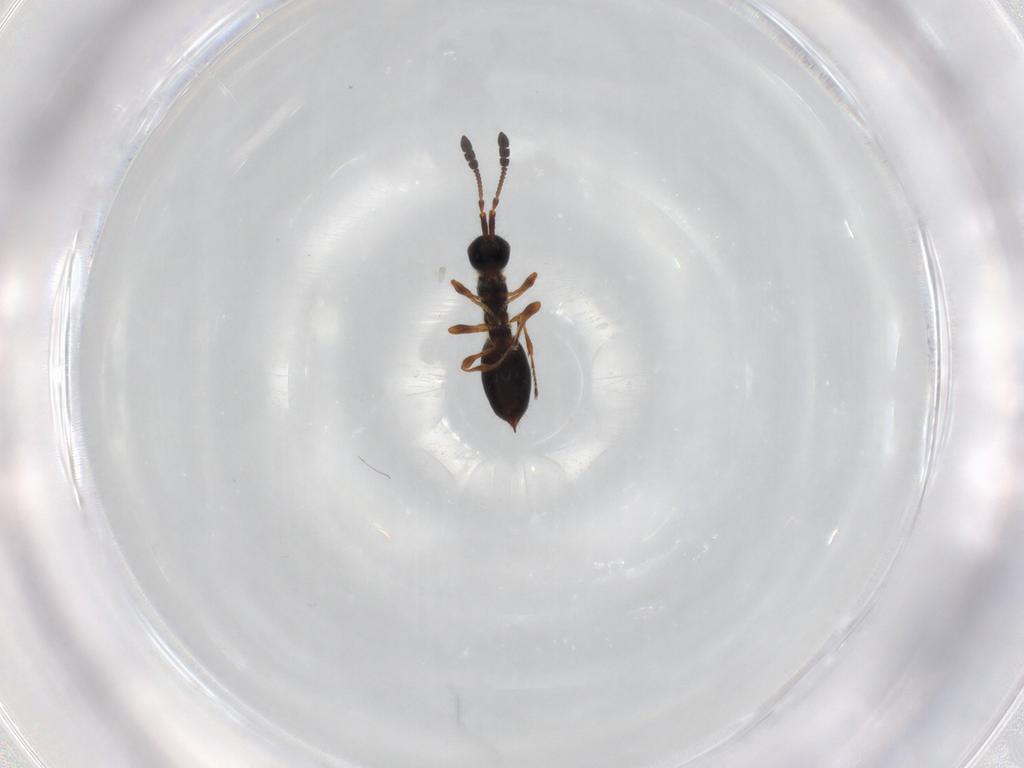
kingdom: Animalia
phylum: Arthropoda
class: Insecta
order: Hymenoptera
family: Diapriidae
